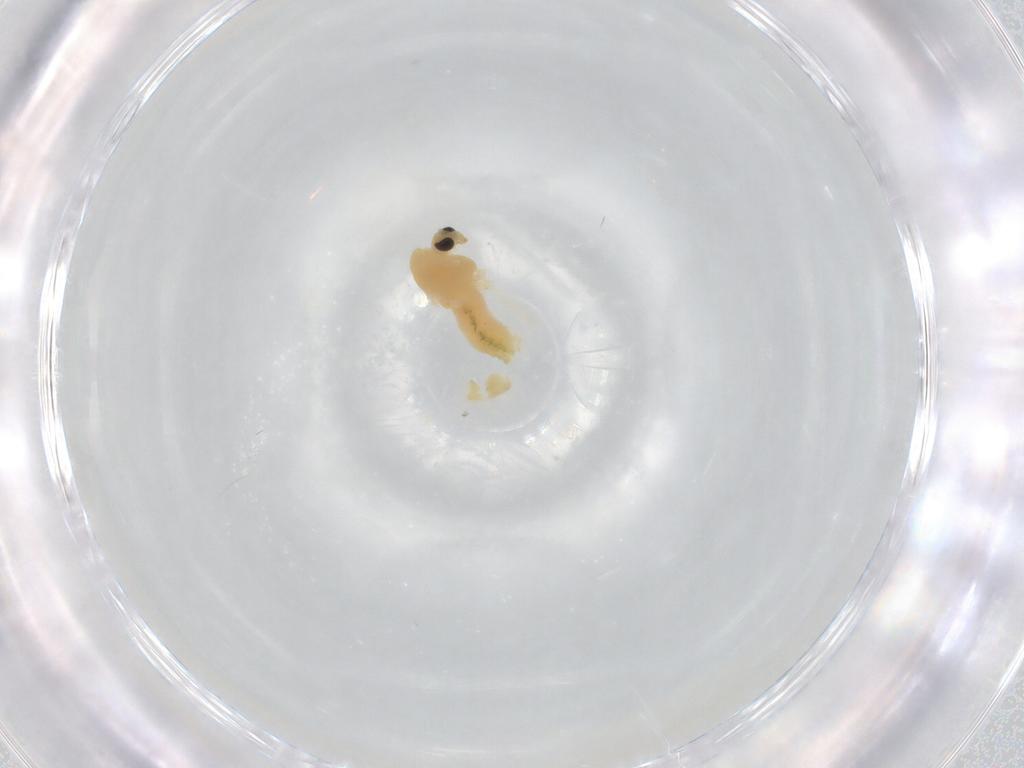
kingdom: Animalia
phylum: Arthropoda
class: Insecta
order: Diptera
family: Chironomidae
